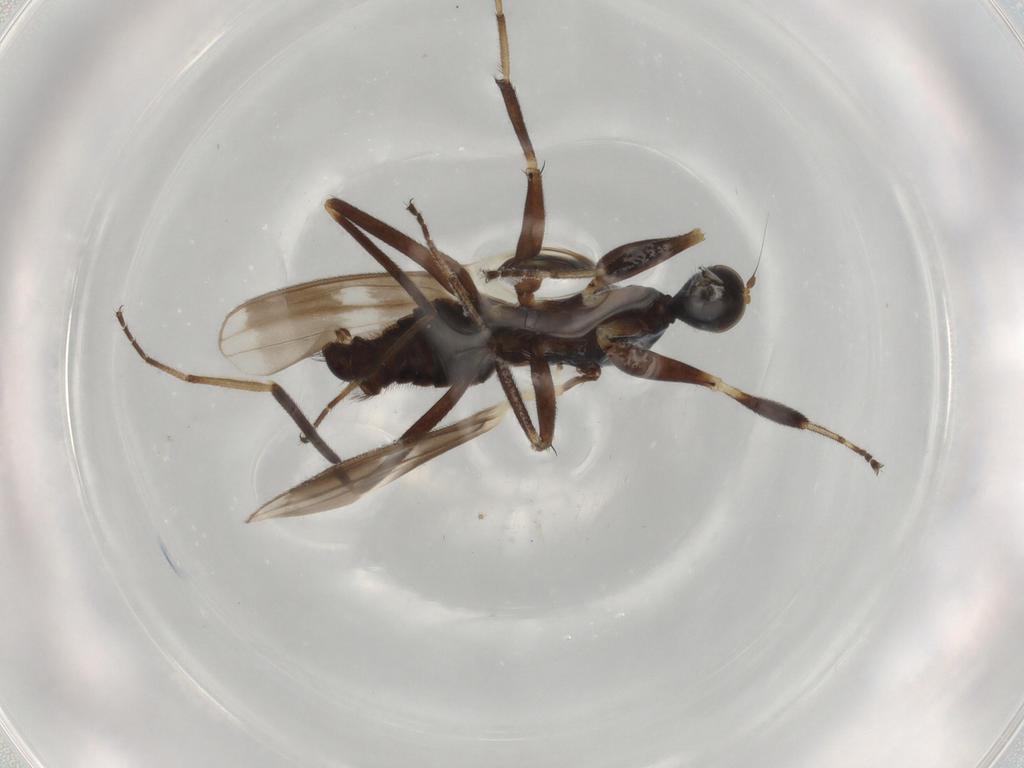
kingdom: Animalia
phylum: Arthropoda
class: Insecta
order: Diptera
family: Hybotidae
